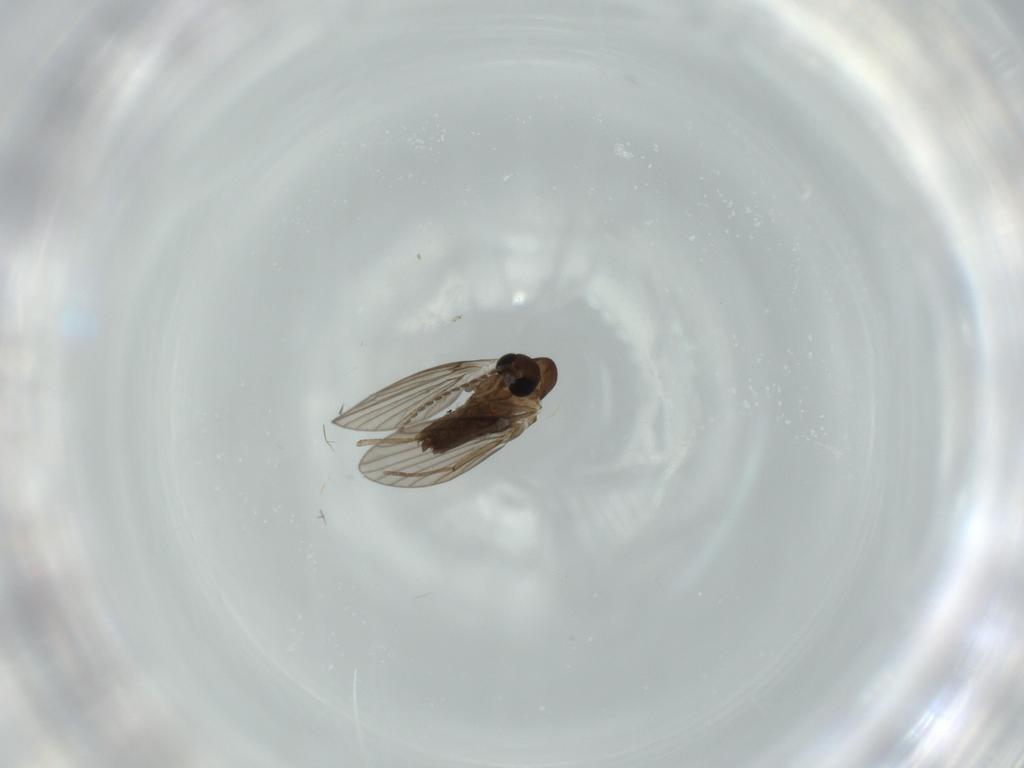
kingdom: Animalia
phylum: Arthropoda
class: Insecta
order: Diptera
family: Psychodidae
